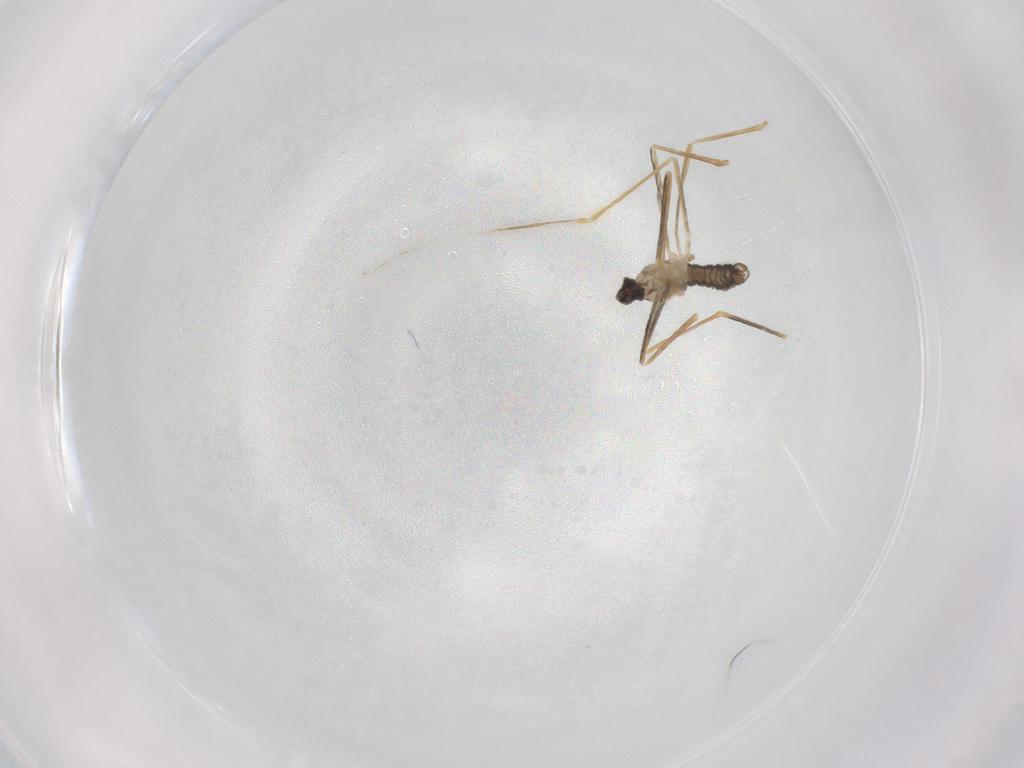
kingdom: Animalia
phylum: Arthropoda
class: Insecta
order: Diptera
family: Cecidomyiidae
